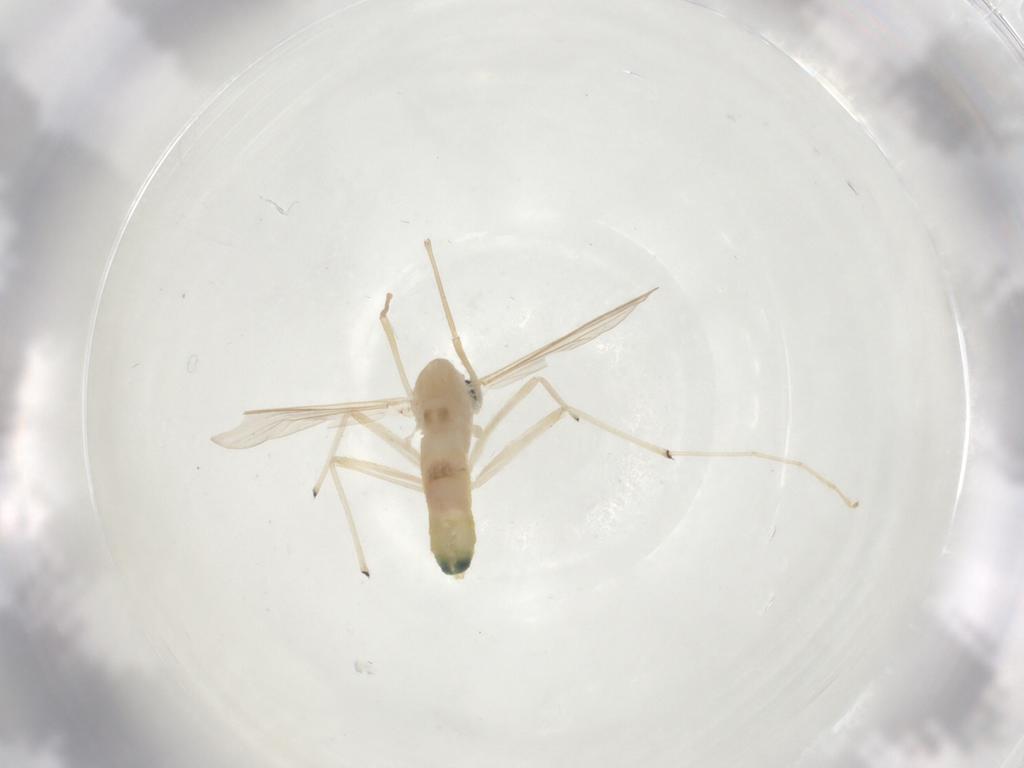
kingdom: Animalia
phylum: Arthropoda
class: Insecta
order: Diptera
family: Chironomidae
